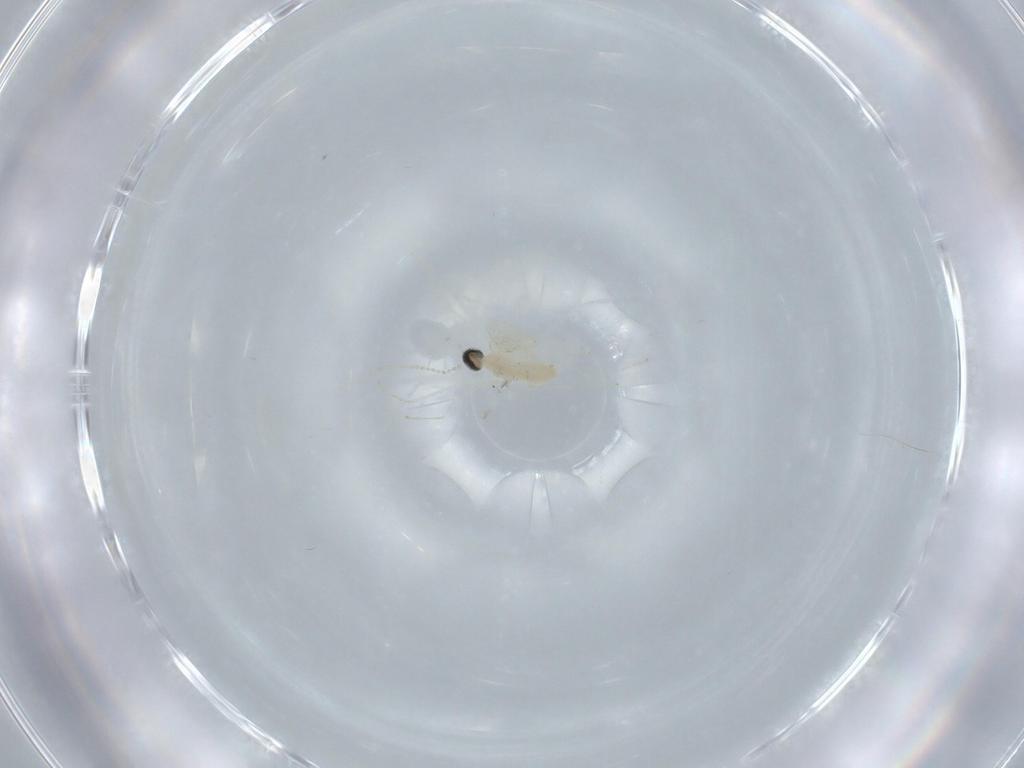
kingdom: Animalia
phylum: Arthropoda
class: Insecta
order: Diptera
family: Cecidomyiidae
